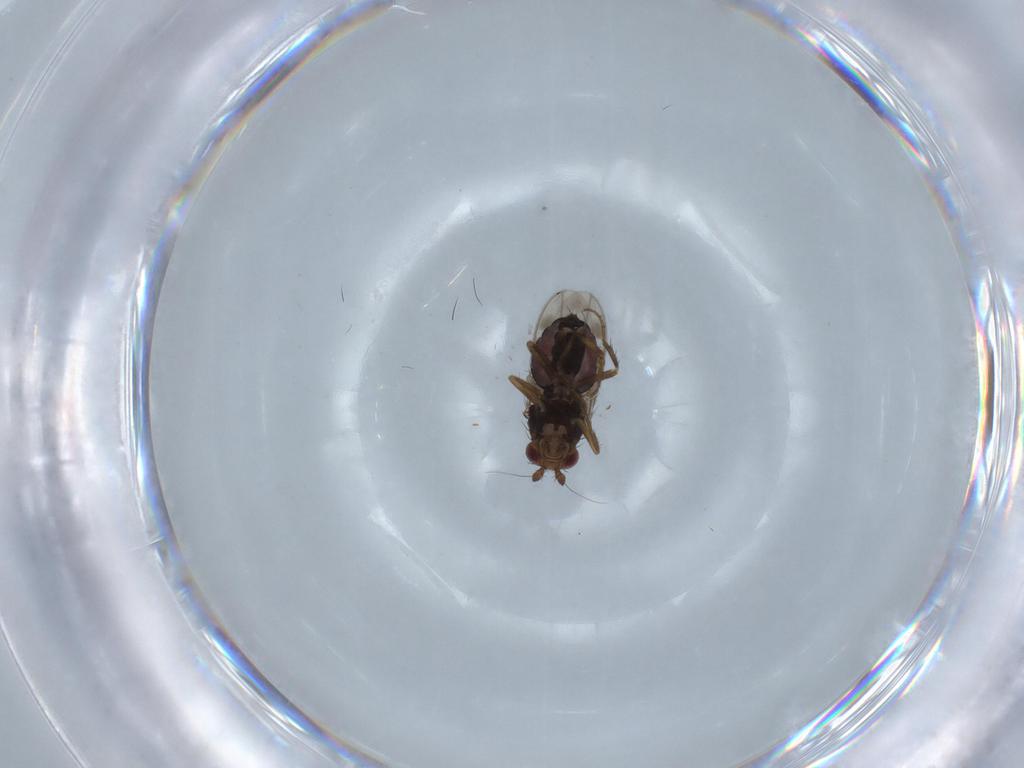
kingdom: Animalia
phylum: Arthropoda
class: Insecta
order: Diptera
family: Sphaeroceridae
